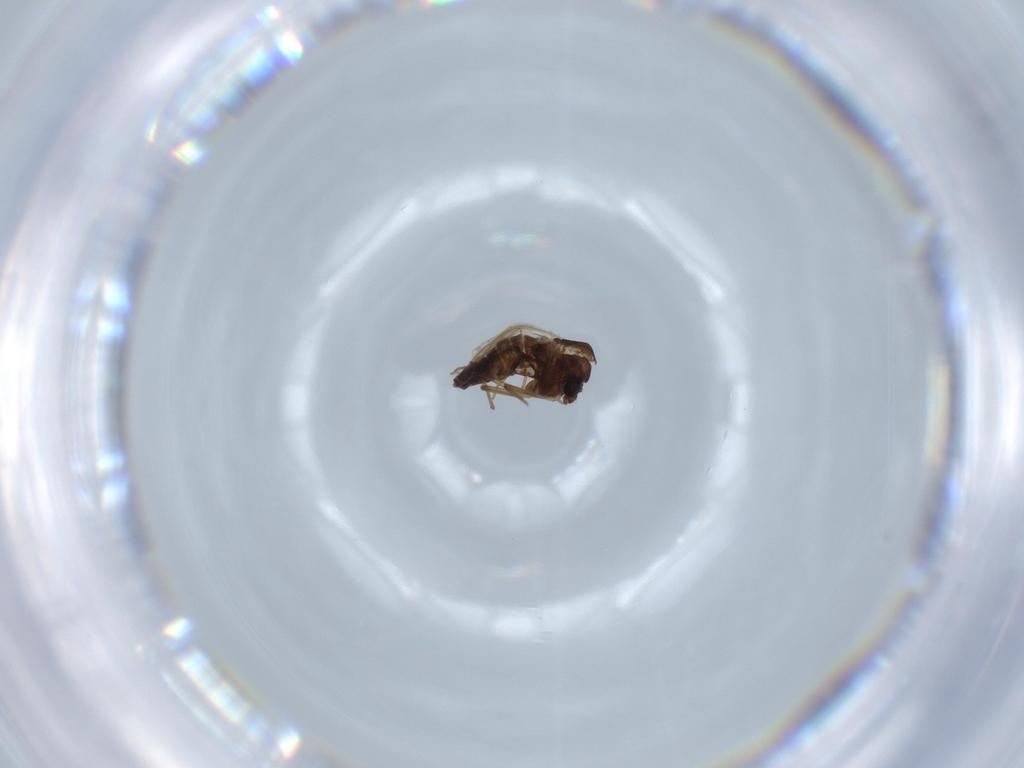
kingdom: Animalia
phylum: Arthropoda
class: Insecta
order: Diptera
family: Chironomidae
